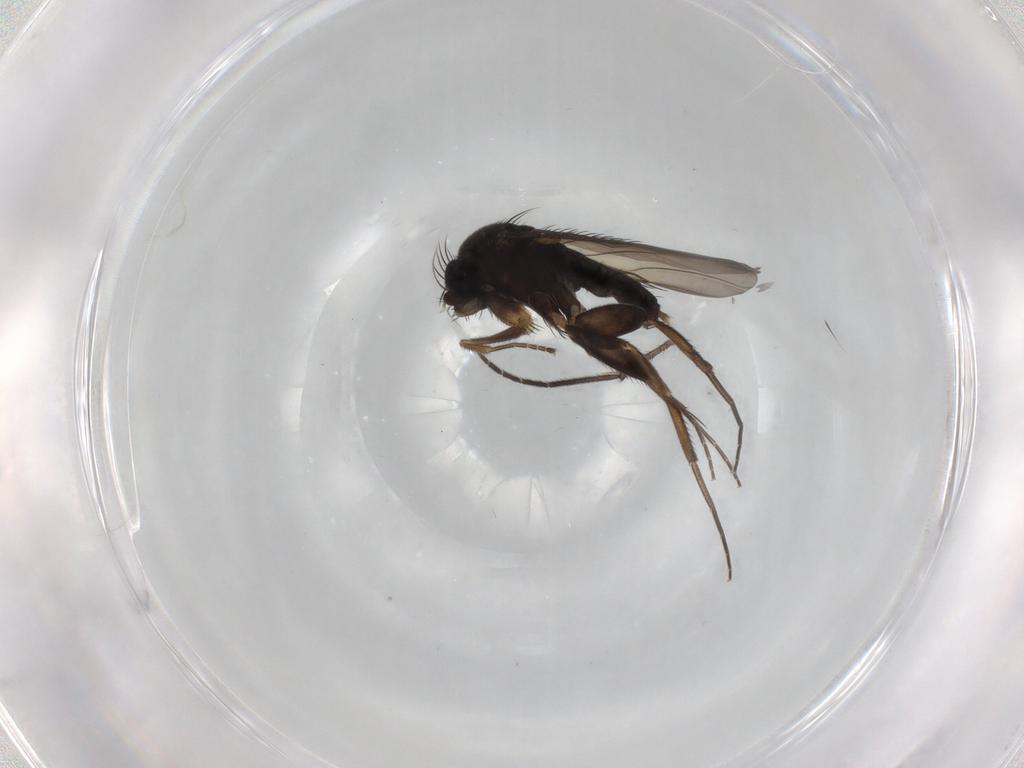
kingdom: Animalia
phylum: Arthropoda
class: Insecta
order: Diptera
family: Phoridae
